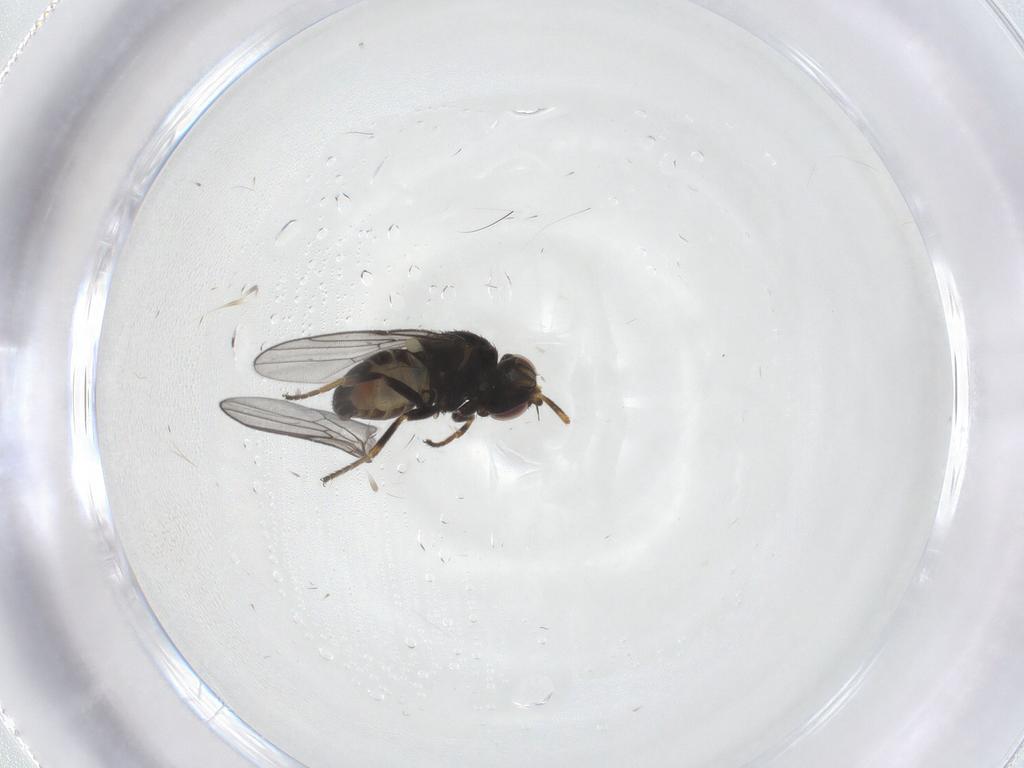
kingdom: Animalia
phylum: Arthropoda
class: Insecta
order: Diptera
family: Chloropidae
